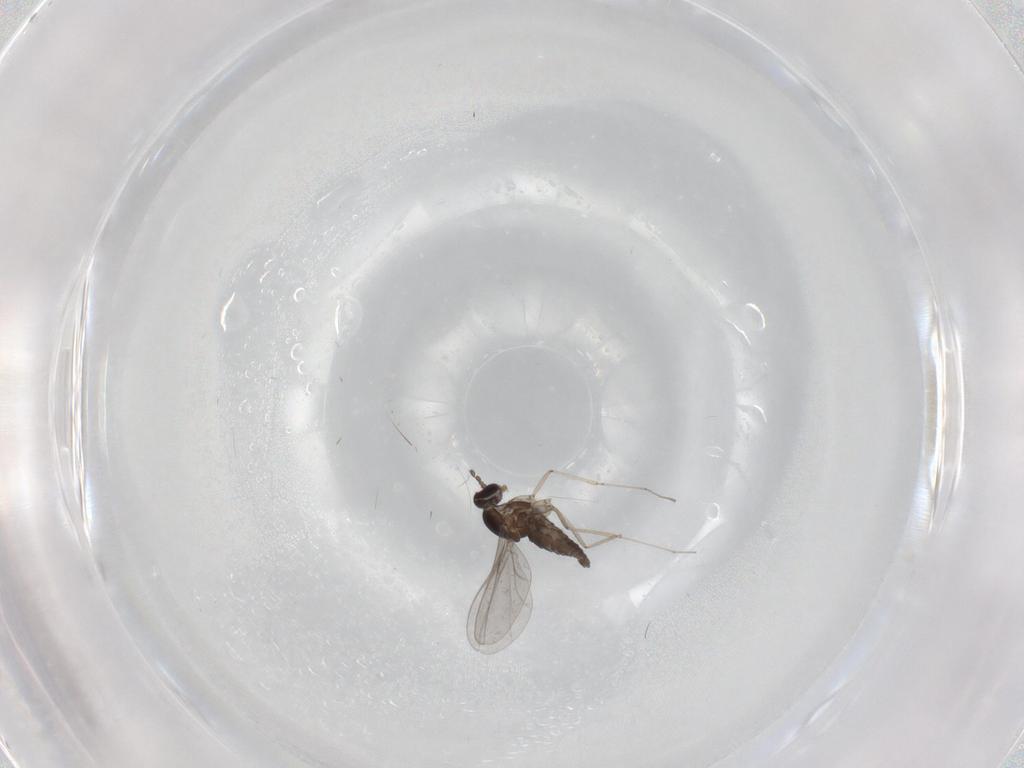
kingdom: Animalia
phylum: Arthropoda
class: Insecta
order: Diptera
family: Cecidomyiidae
